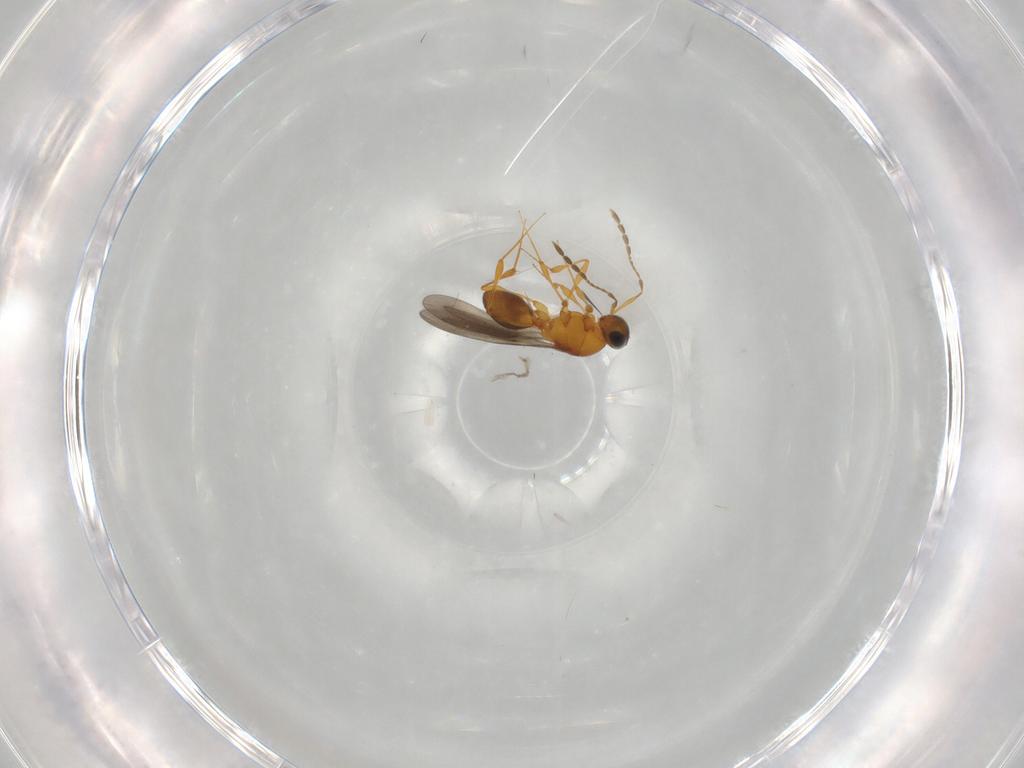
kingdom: Animalia
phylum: Arthropoda
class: Insecta
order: Hymenoptera
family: Platygastridae
